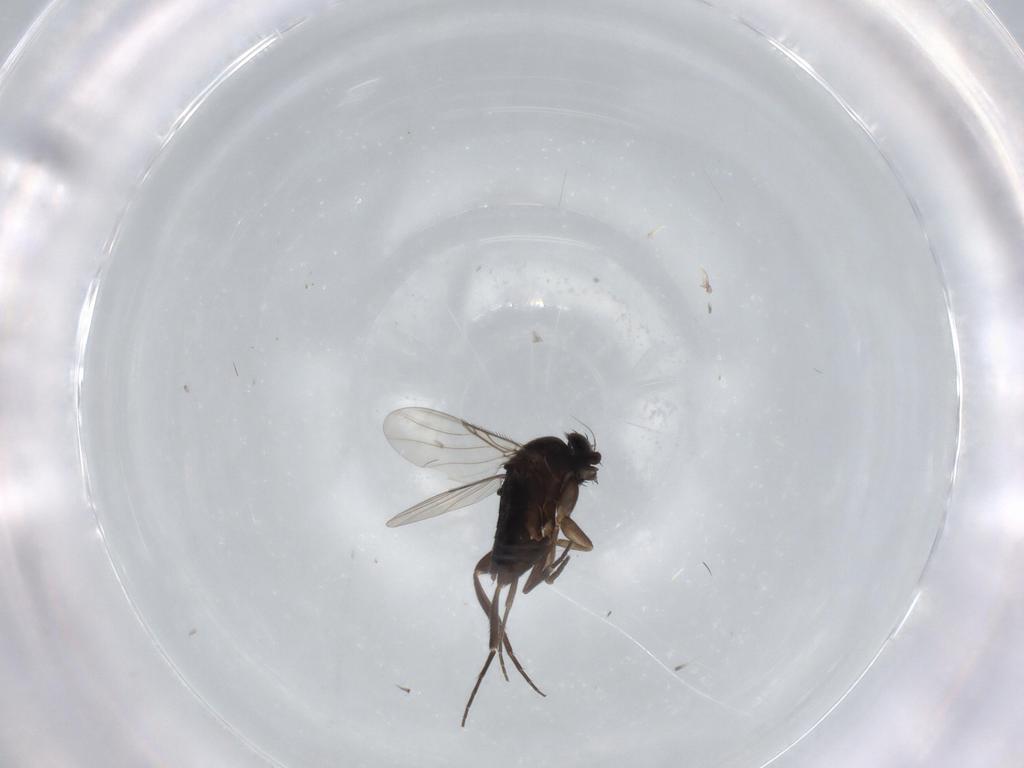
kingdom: Animalia
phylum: Arthropoda
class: Insecta
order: Diptera
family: Phoridae
